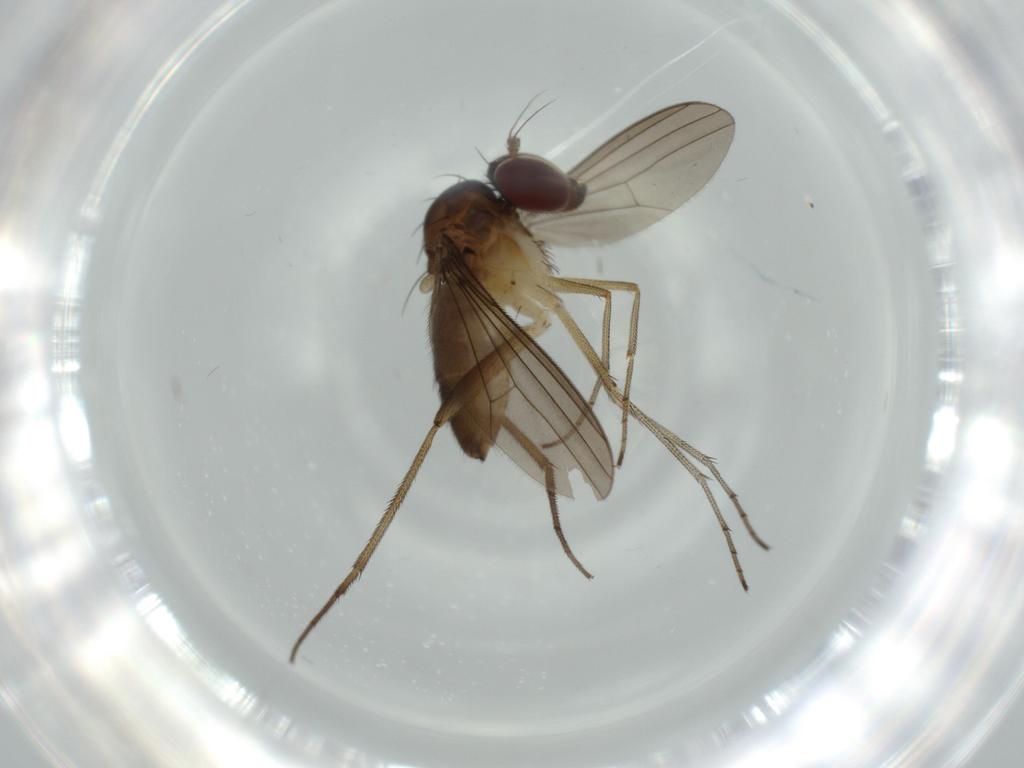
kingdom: Animalia
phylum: Arthropoda
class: Insecta
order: Diptera
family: Dolichopodidae
